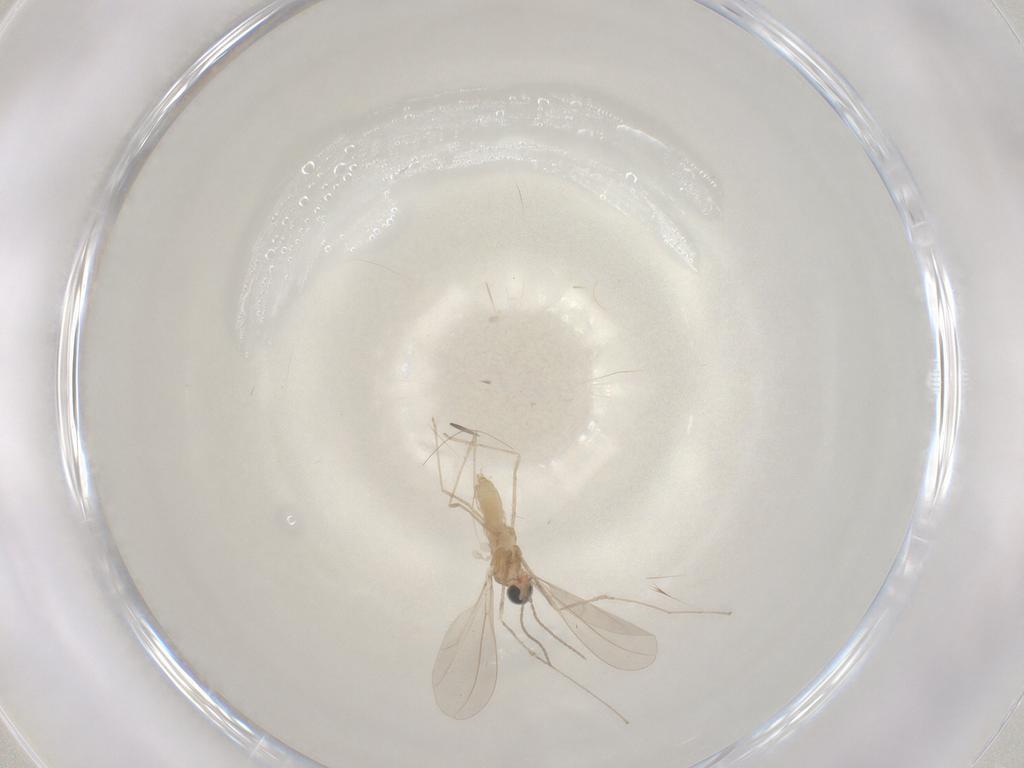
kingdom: Animalia
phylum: Arthropoda
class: Insecta
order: Diptera
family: Cecidomyiidae
